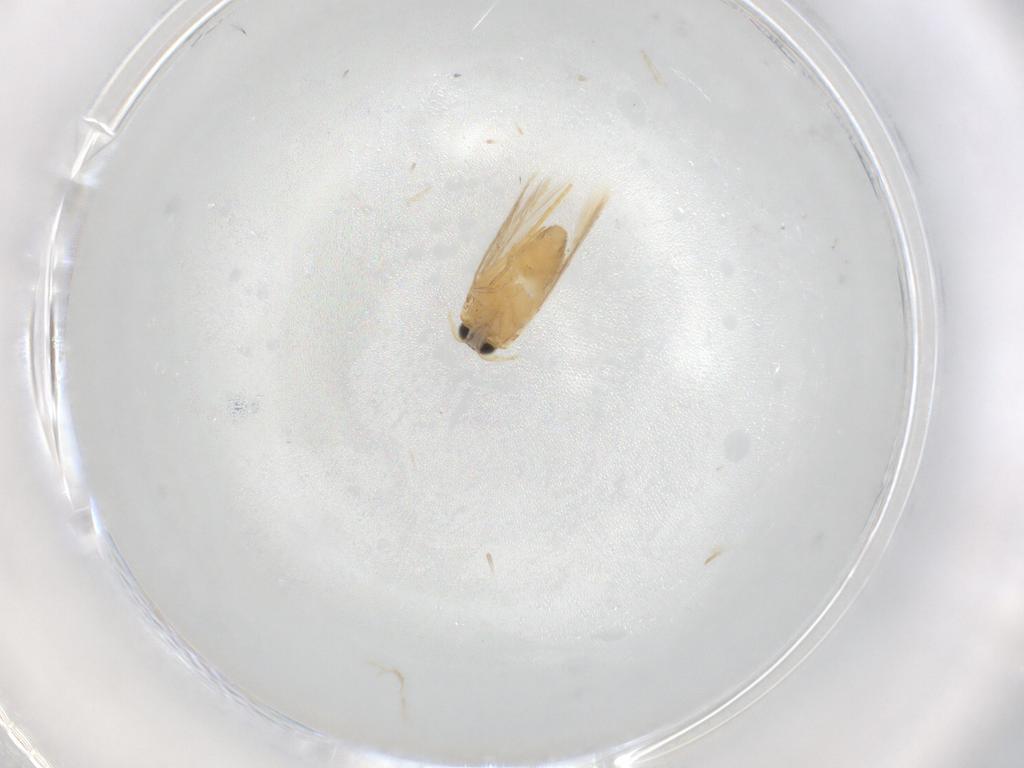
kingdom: Animalia
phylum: Arthropoda
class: Insecta
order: Lepidoptera
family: Nepticulidae
